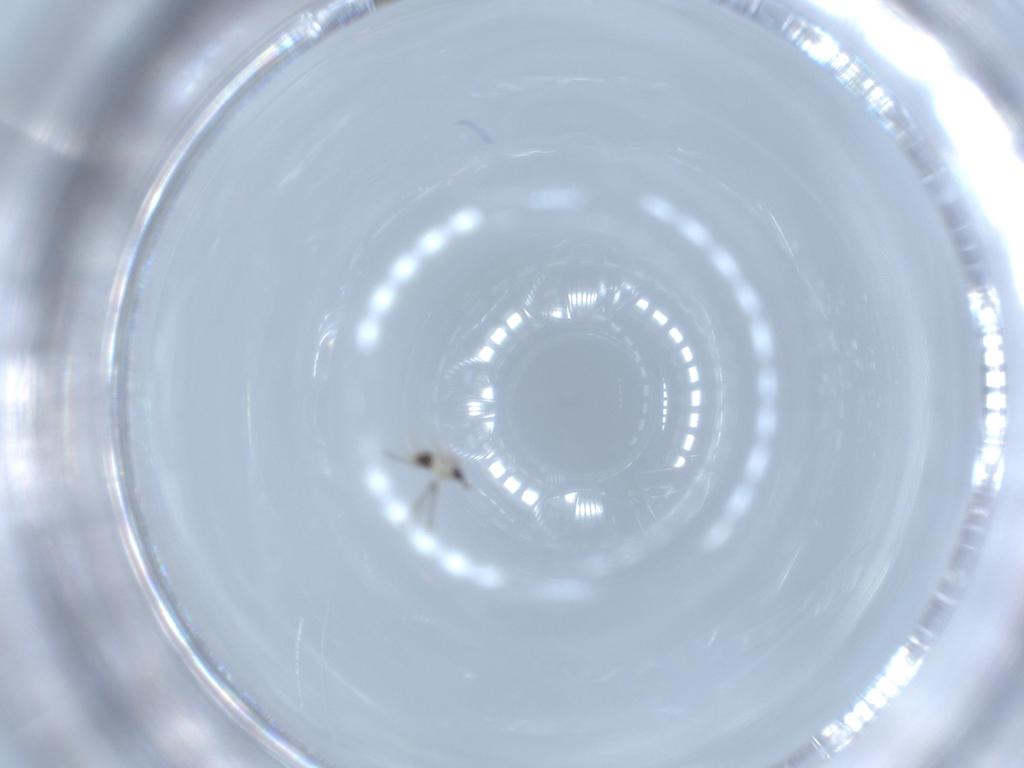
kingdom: Animalia
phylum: Arthropoda
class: Insecta
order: Hymenoptera
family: Mymaridae
